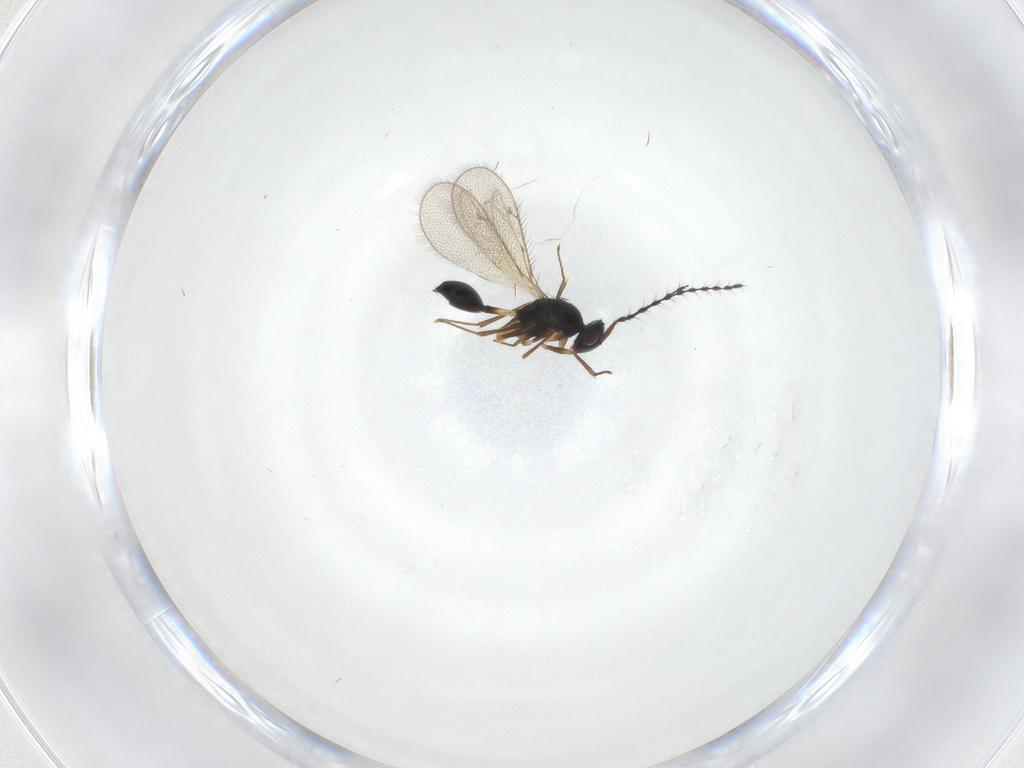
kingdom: Animalia
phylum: Arthropoda
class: Insecta
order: Hymenoptera
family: Diparidae
